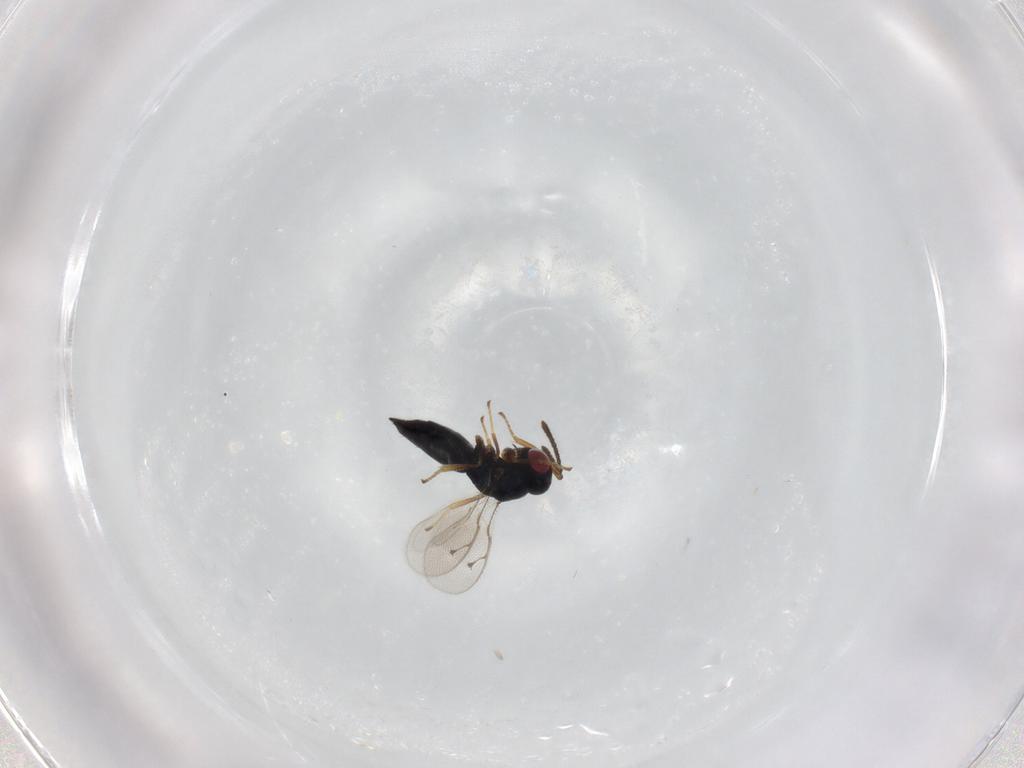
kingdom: Animalia
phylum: Arthropoda
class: Insecta
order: Hymenoptera
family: Pteromalidae
